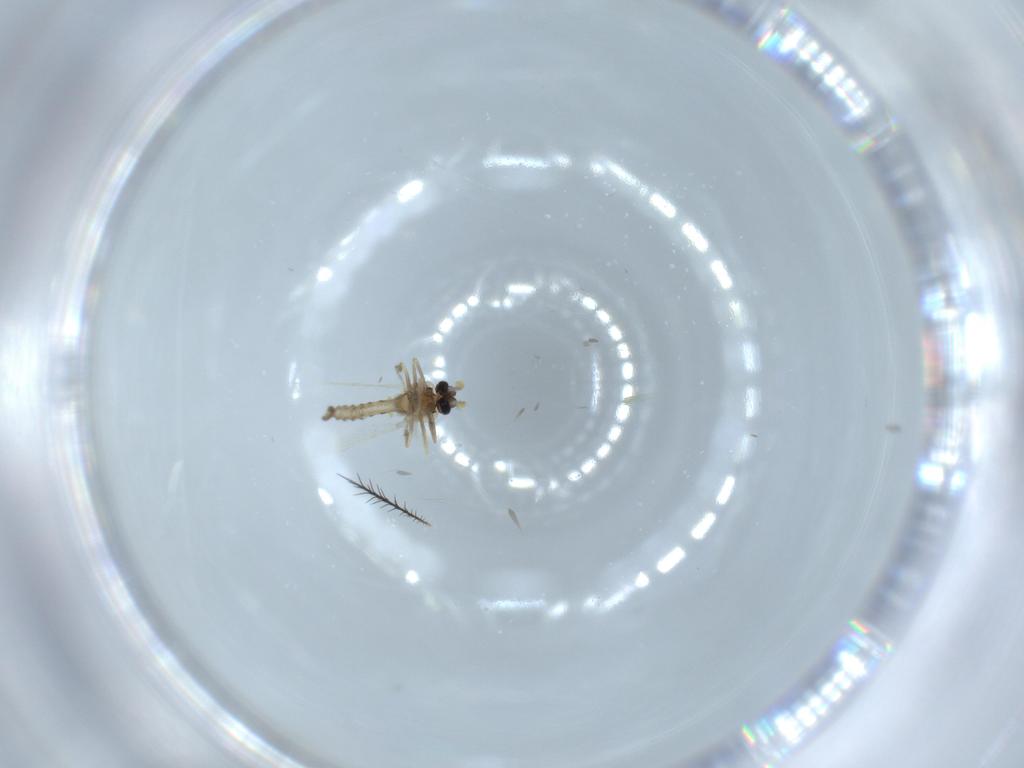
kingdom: Animalia
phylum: Arthropoda
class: Insecta
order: Diptera
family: Ceratopogonidae
